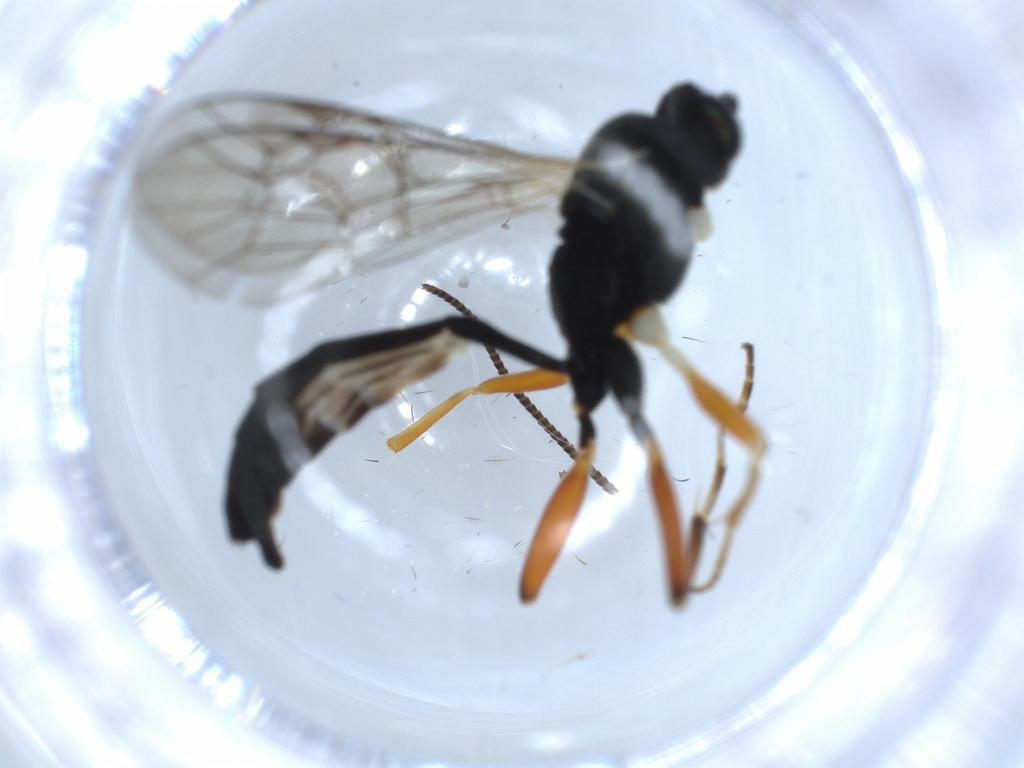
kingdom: Animalia
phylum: Arthropoda
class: Insecta
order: Hymenoptera
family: Ichneumonidae
